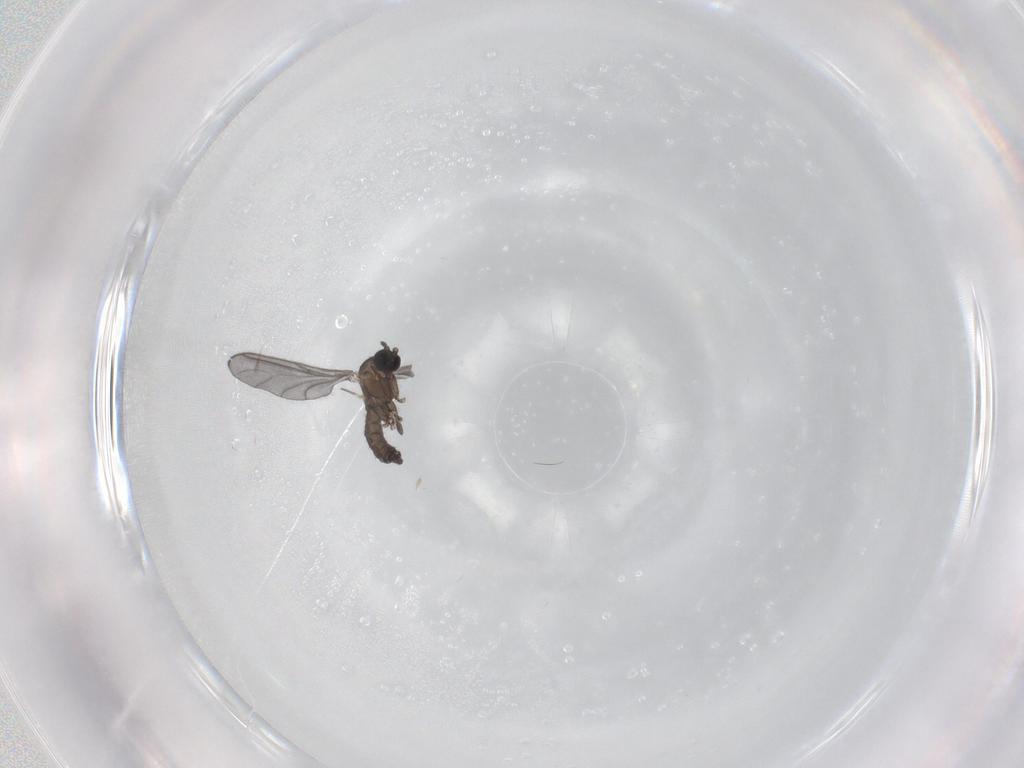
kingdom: Animalia
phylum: Arthropoda
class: Insecta
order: Diptera
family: Sciaridae
